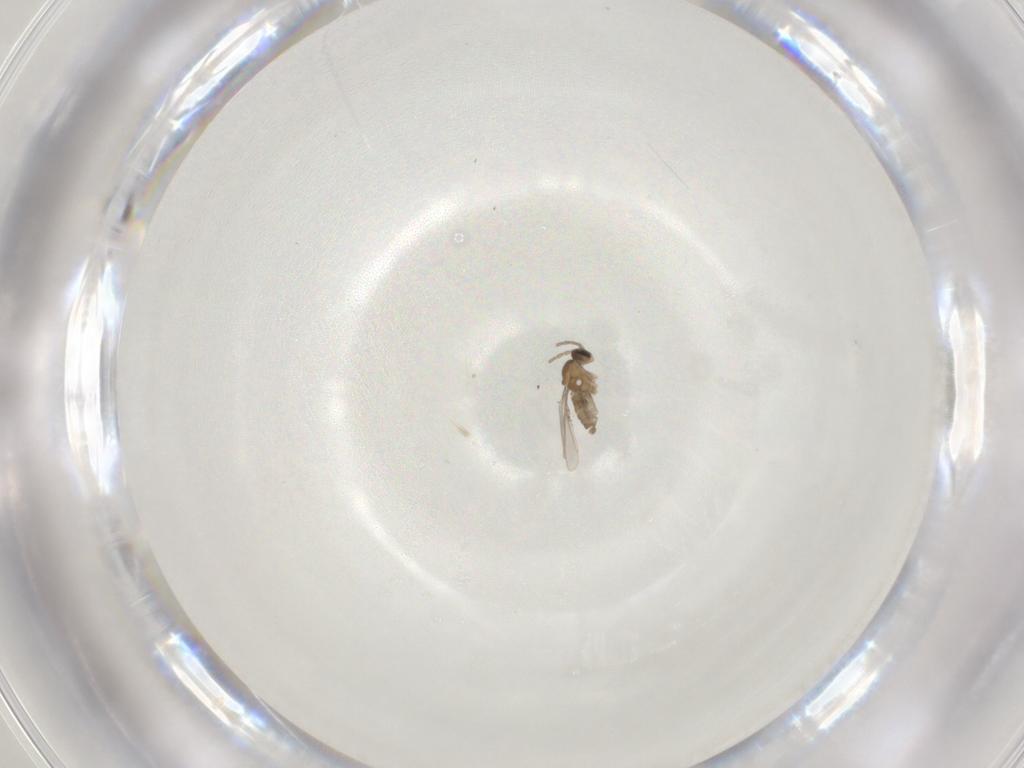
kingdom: Animalia
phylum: Arthropoda
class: Insecta
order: Diptera
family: Cecidomyiidae
